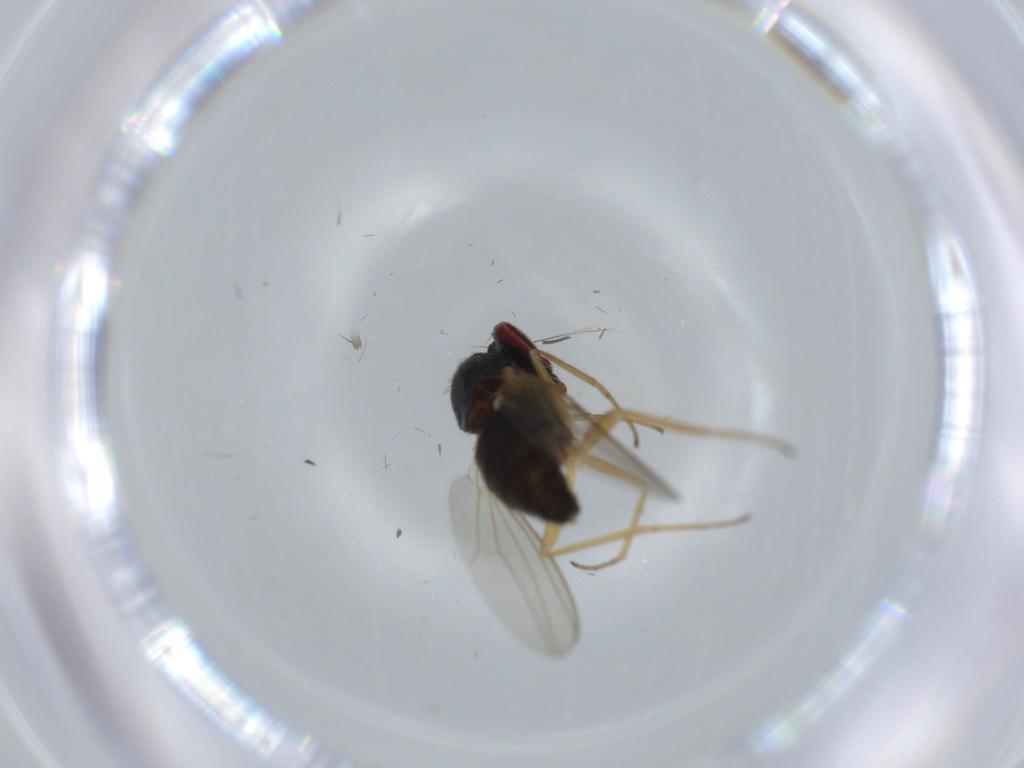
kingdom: Animalia
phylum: Arthropoda
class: Insecta
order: Diptera
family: Dolichopodidae
